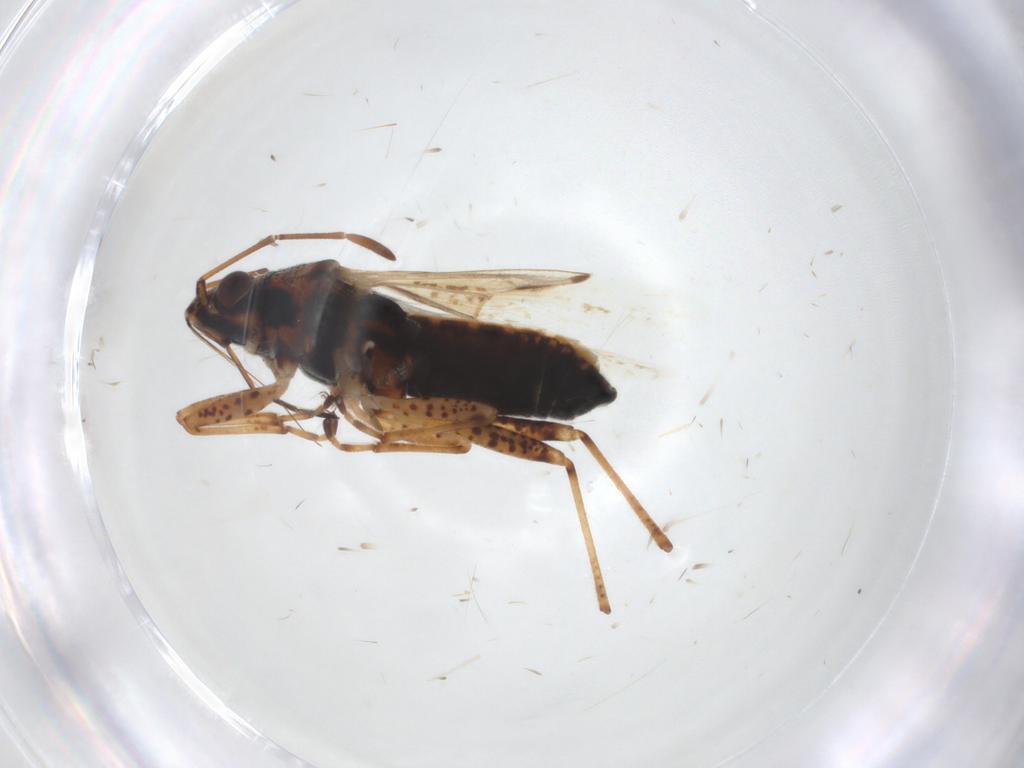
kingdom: Animalia
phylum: Arthropoda
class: Insecta
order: Hemiptera
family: Lygaeidae
